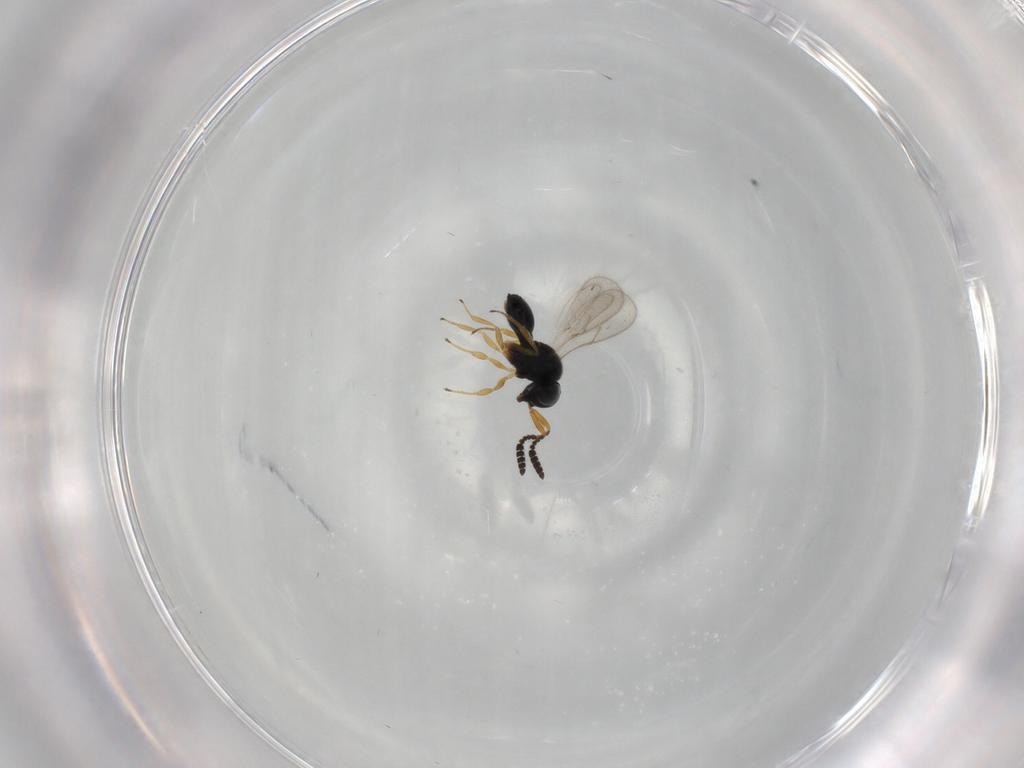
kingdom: Animalia
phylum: Arthropoda
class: Insecta
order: Hymenoptera
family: Scelionidae
